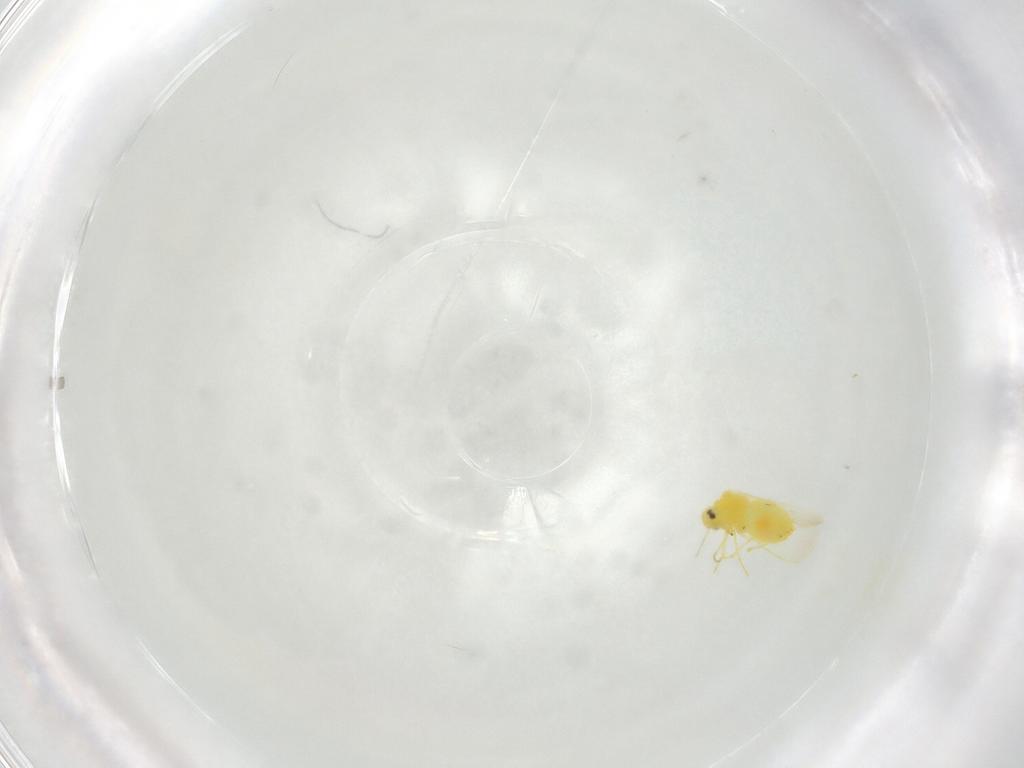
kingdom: Animalia
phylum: Arthropoda
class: Insecta
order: Hemiptera
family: Aleyrodidae
